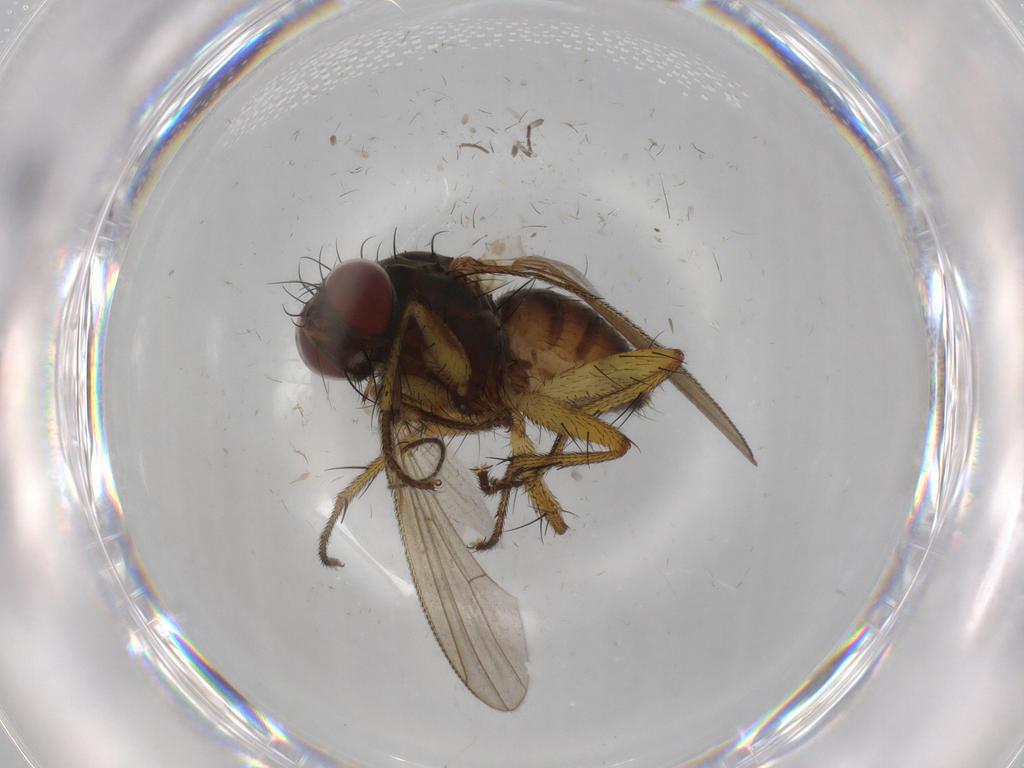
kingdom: Animalia
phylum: Arthropoda
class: Insecta
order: Diptera
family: Muscidae
